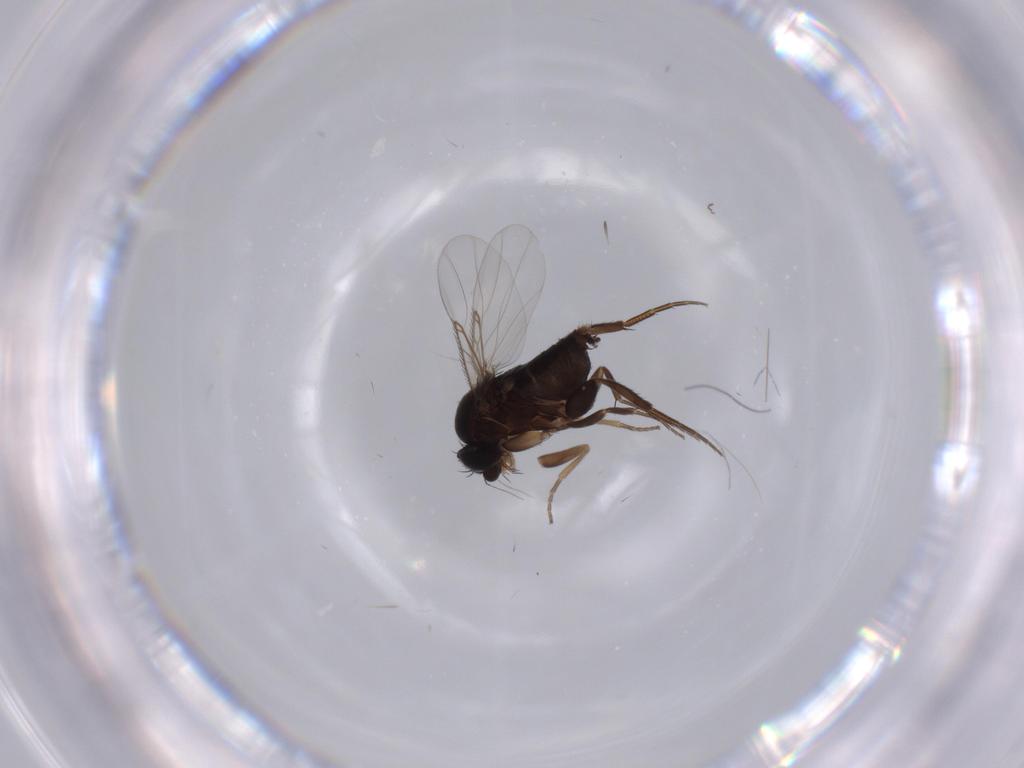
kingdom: Animalia
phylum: Arthropoda
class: Insecta
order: Diptera
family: Phoridae
